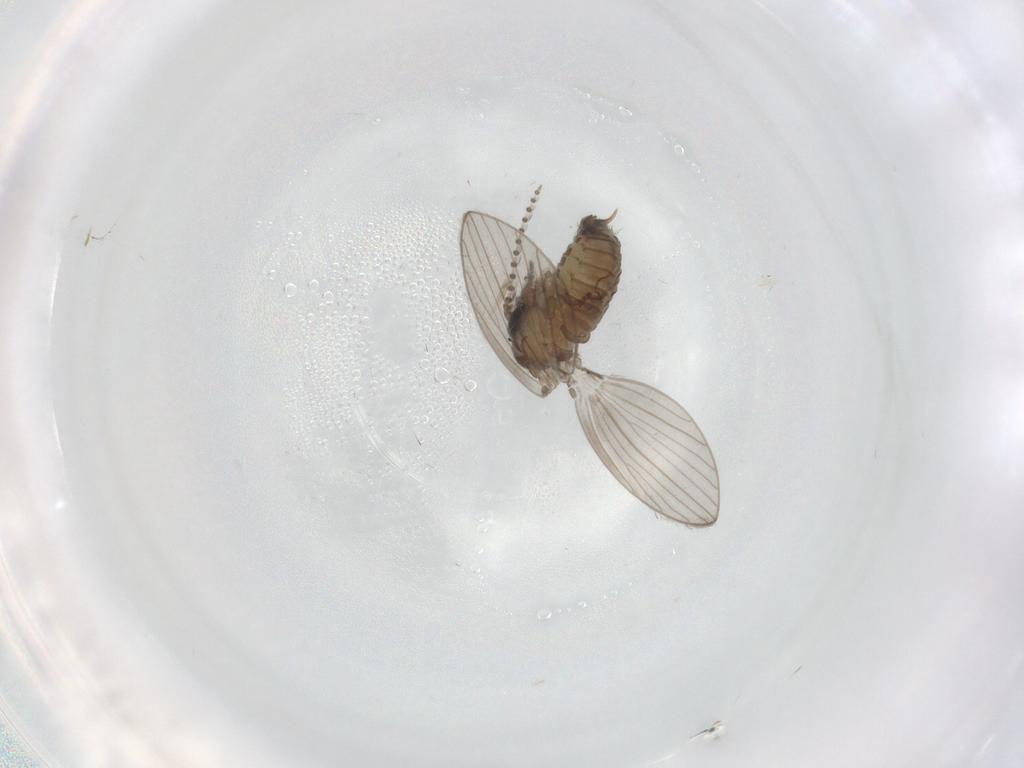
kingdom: Animalia
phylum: Arthropoda
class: Insecta
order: Diptera
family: Psychodidae
